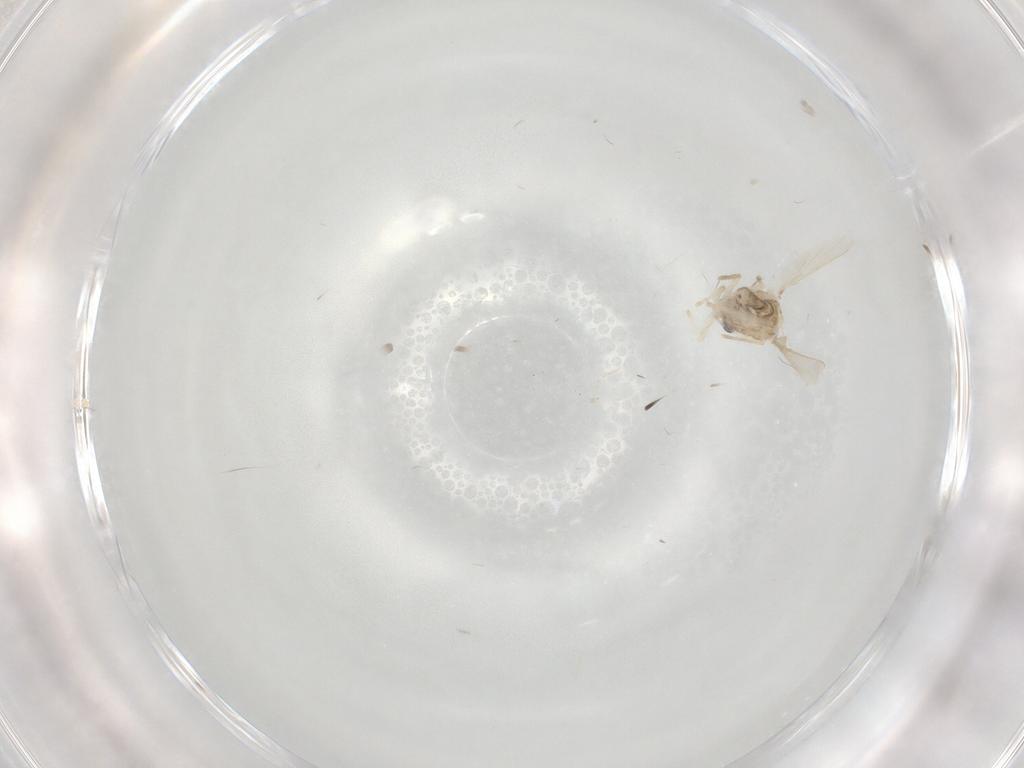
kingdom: Animalia
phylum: Arthropoda
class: Insecta
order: Diptera
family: Chironomidae
